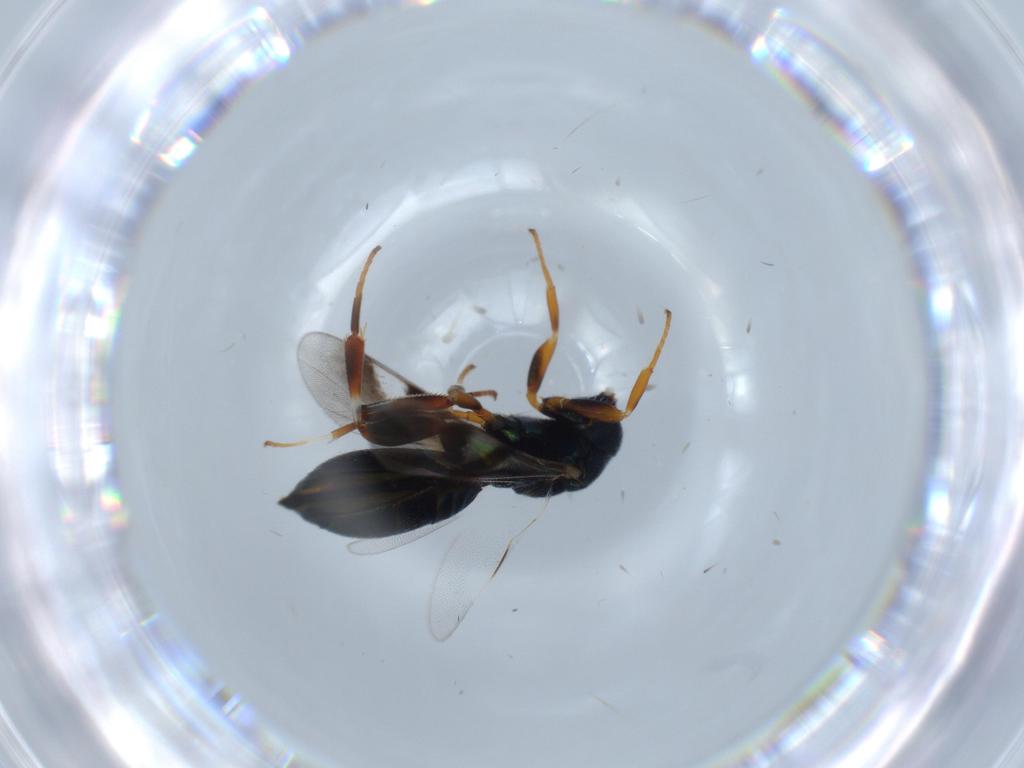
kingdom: Animalia
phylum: Arthropoda
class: Insecta
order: Hymenoptera
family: Cleonyminae
